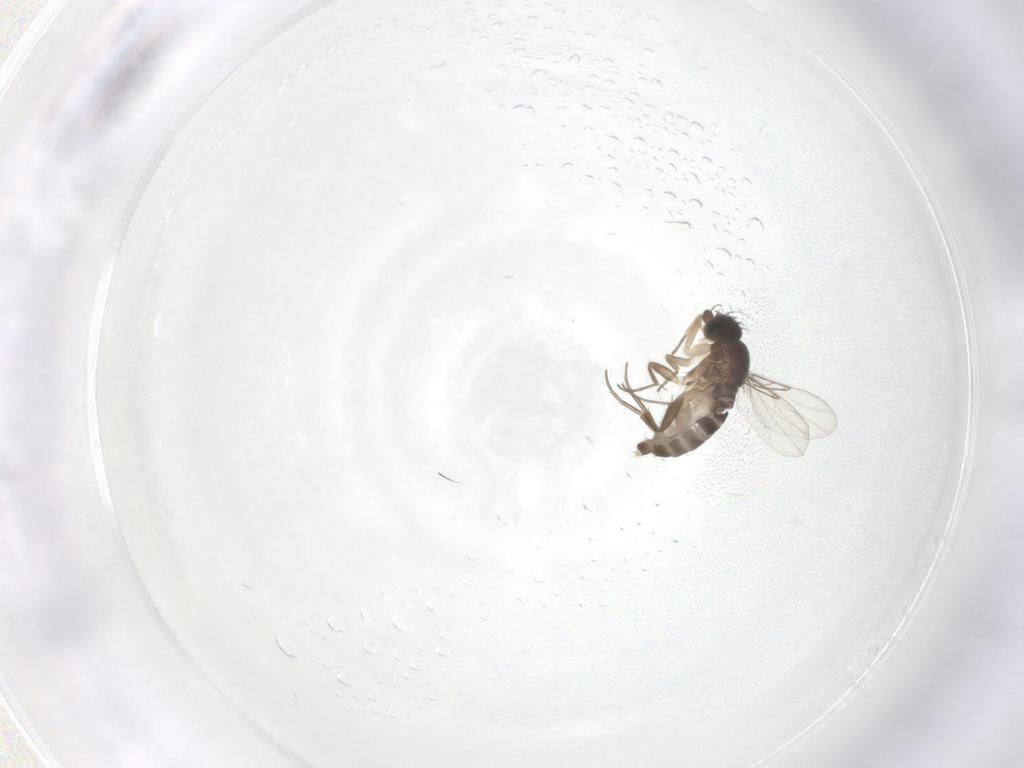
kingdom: Animalia
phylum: Arthropoda
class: Insecta
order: Diptera
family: Phoridae
